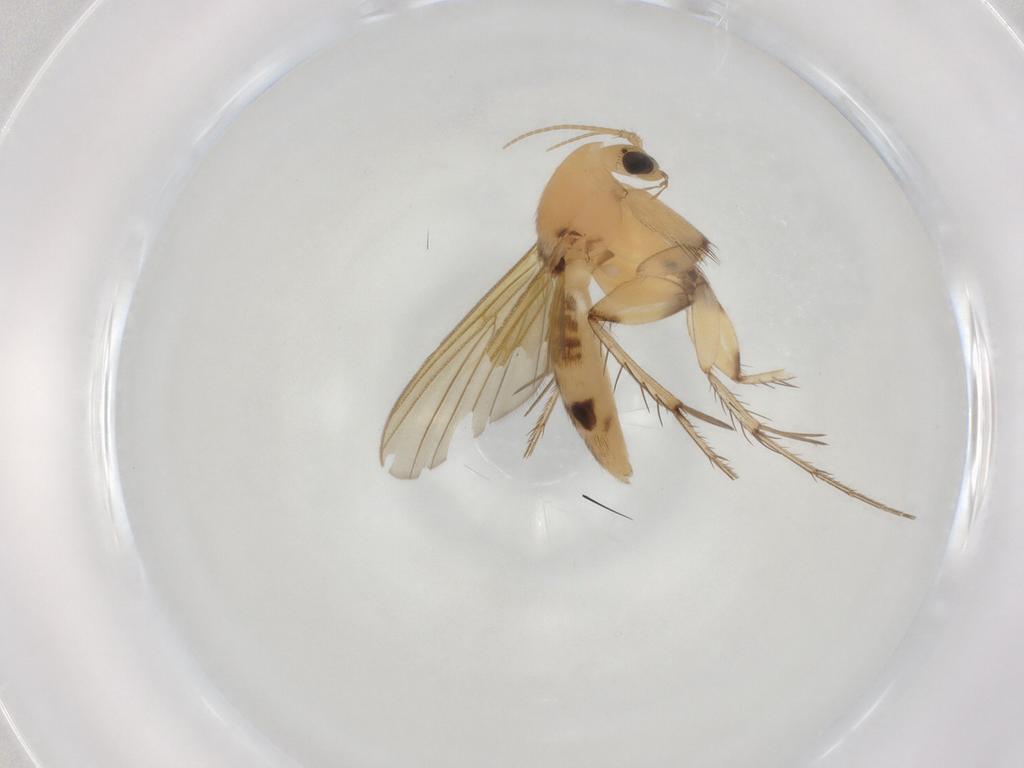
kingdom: Animalia
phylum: Arthropoda
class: Insecta
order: Diptera
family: Mycetophilidae
